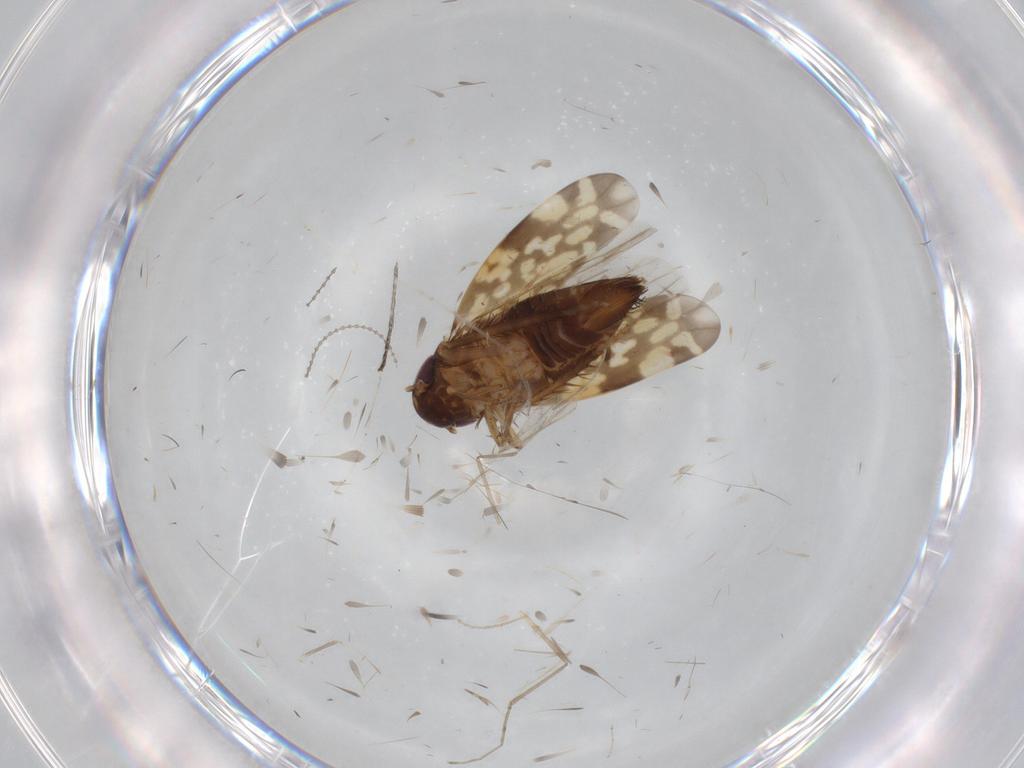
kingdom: Animalia
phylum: Arthropoda
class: Insecta
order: Hemiptera
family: Cicadellidae
